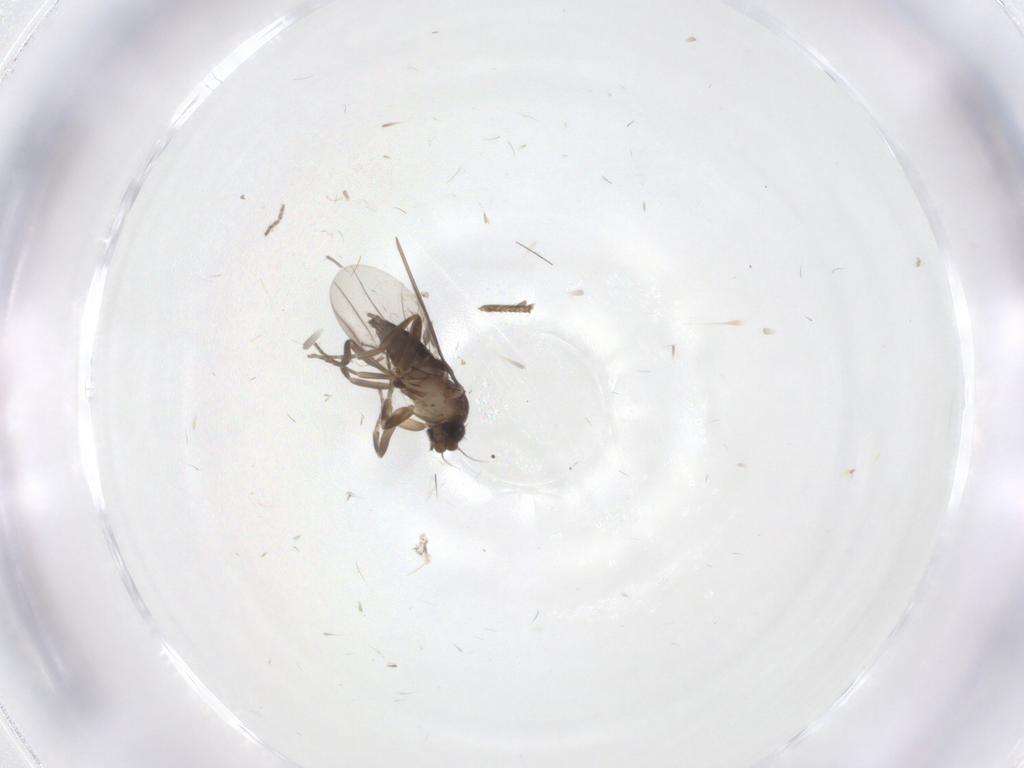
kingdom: Animalia
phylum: Arthropoda
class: Insecta
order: Diptera
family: Phoridae
